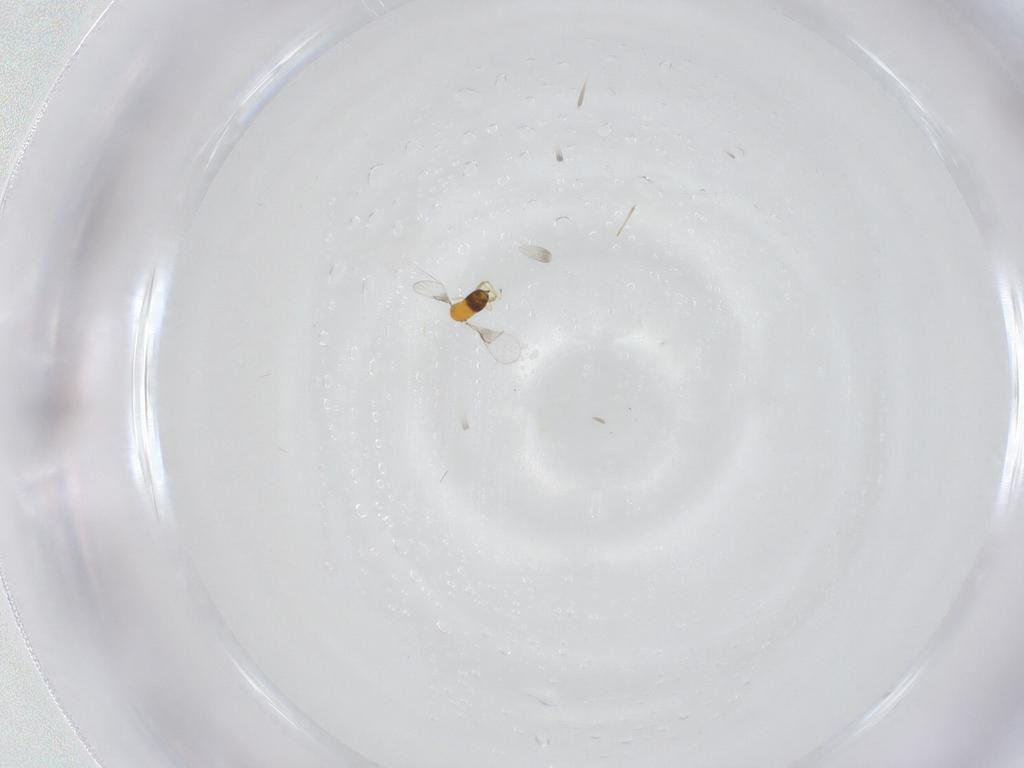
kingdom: Animalia
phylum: Arthropoda
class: Insecta
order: Hymenoptera
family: Trichogrammatidae
